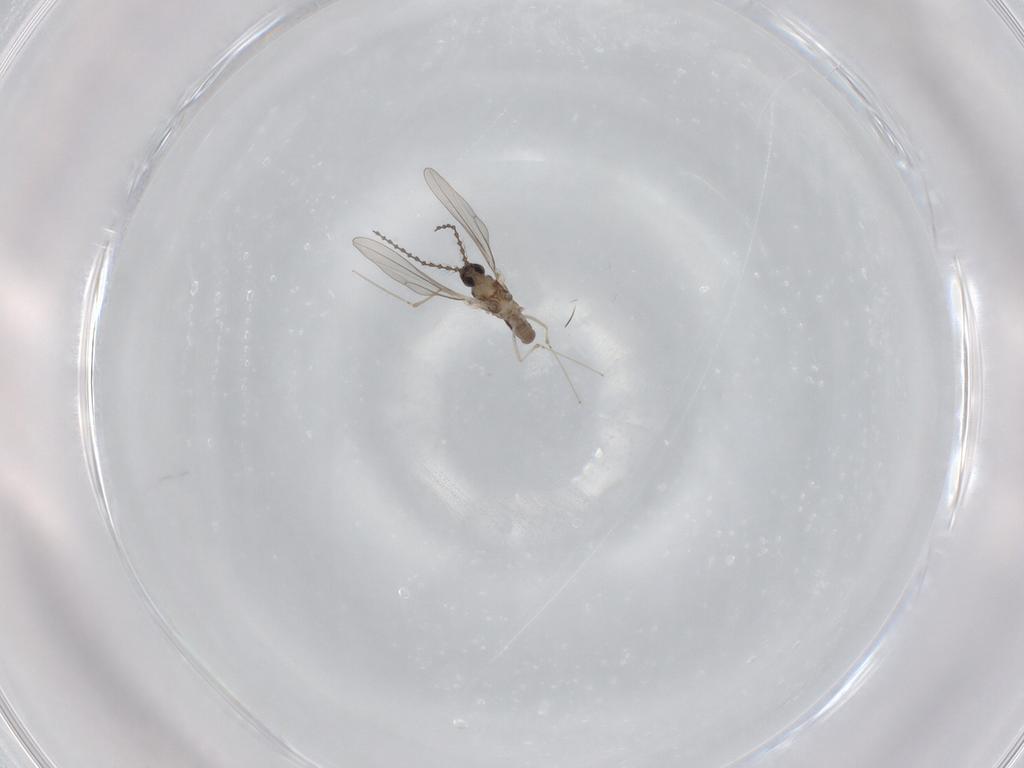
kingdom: Animalia
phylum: Arthropoda
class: Insecta
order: Diptera
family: Cecidomyiidae
